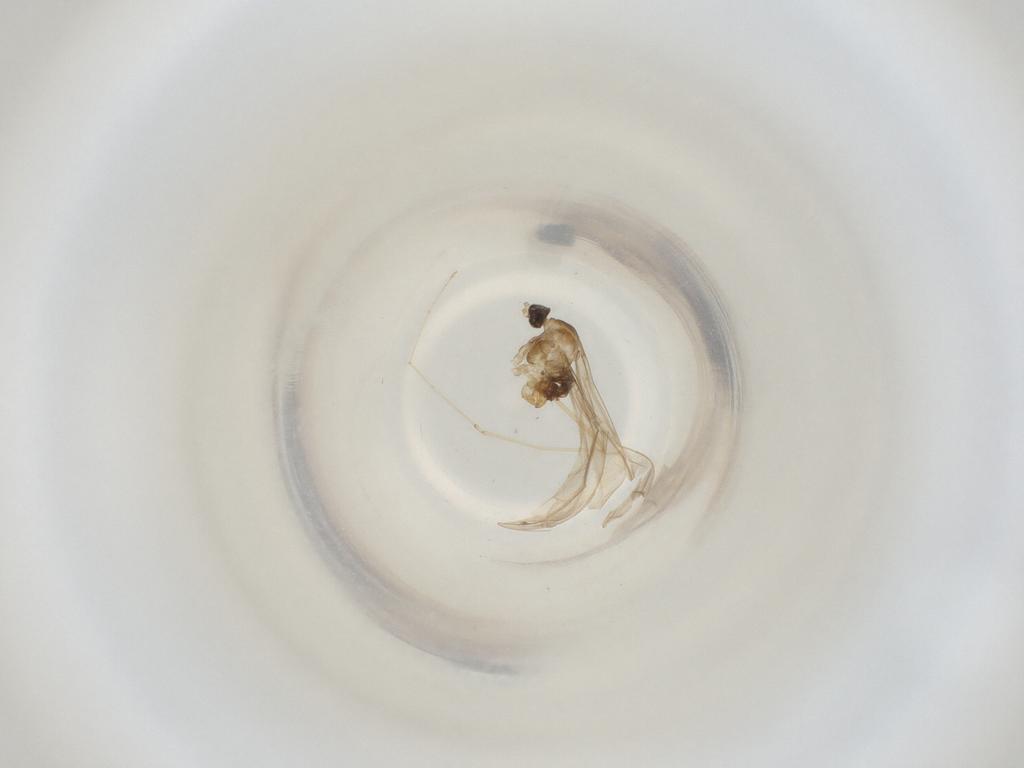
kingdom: Animalia
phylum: Arthropoda
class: Insecta
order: Diptera
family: Cecidomyiidae
